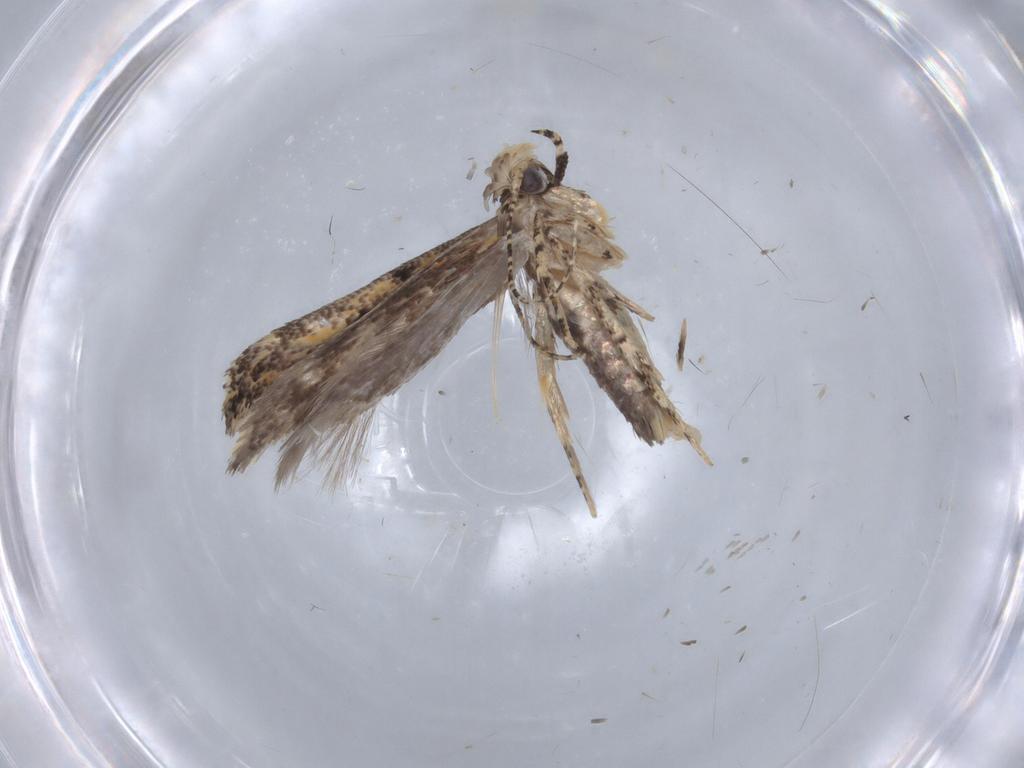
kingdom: Animalia
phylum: Arthropoda
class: Insecta
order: Lepidoptera
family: Gelechiidae
